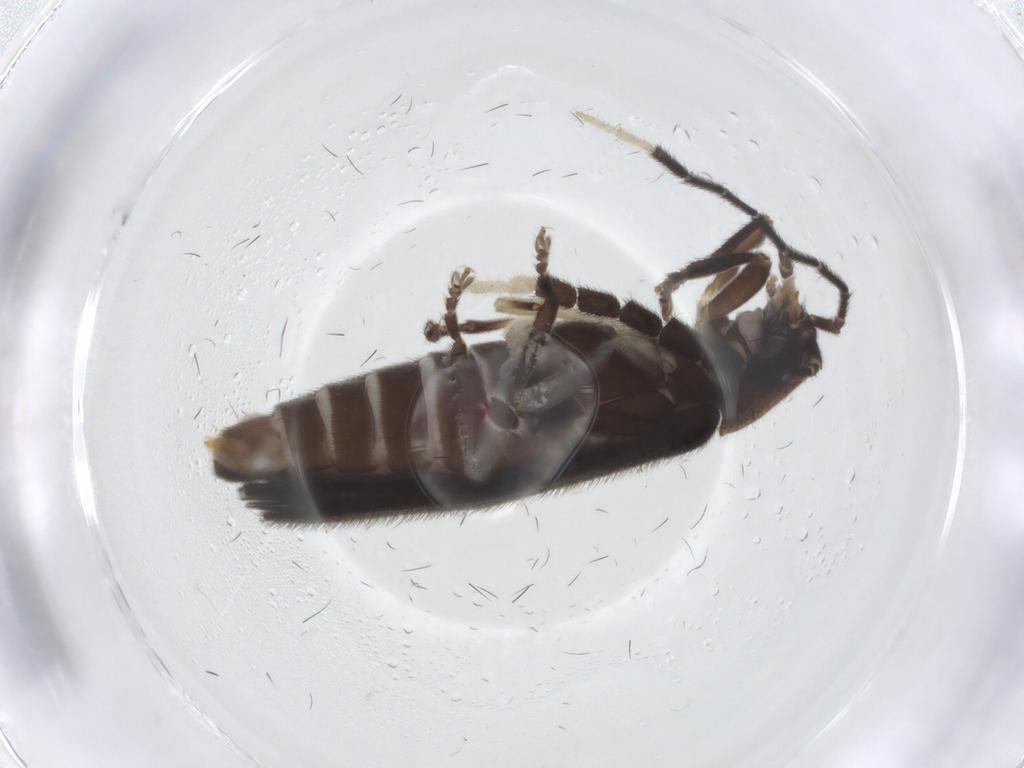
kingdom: Animalia
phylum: Arthropoda
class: Insecta
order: Coleoptera
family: Lampyridae
